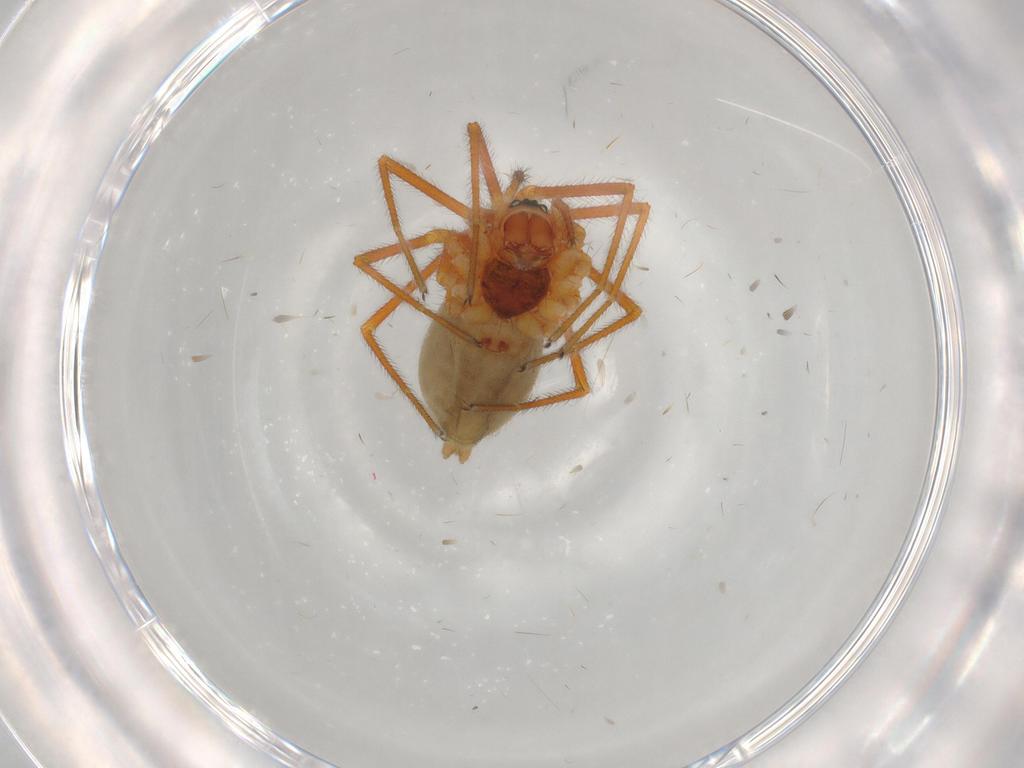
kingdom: Animalia
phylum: Arthropoda
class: Arachnida
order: Araneae
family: Linyphiidae
